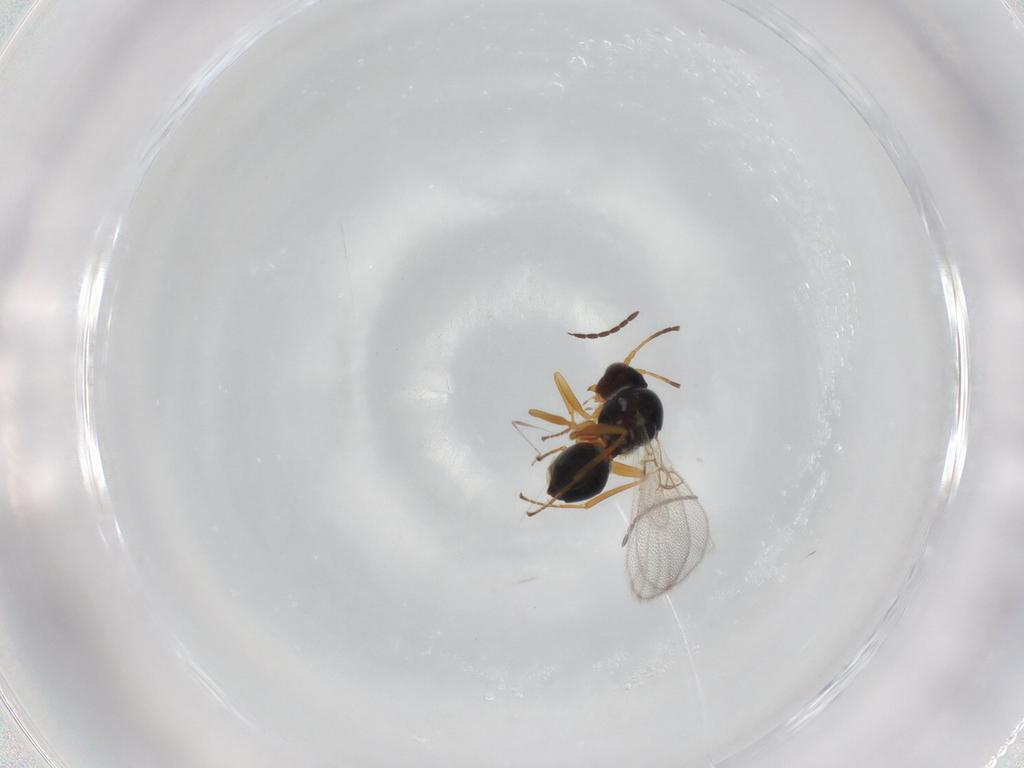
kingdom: Animalia
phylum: Arthropoda
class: Insecta
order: Hymenoptera
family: Figitidae
